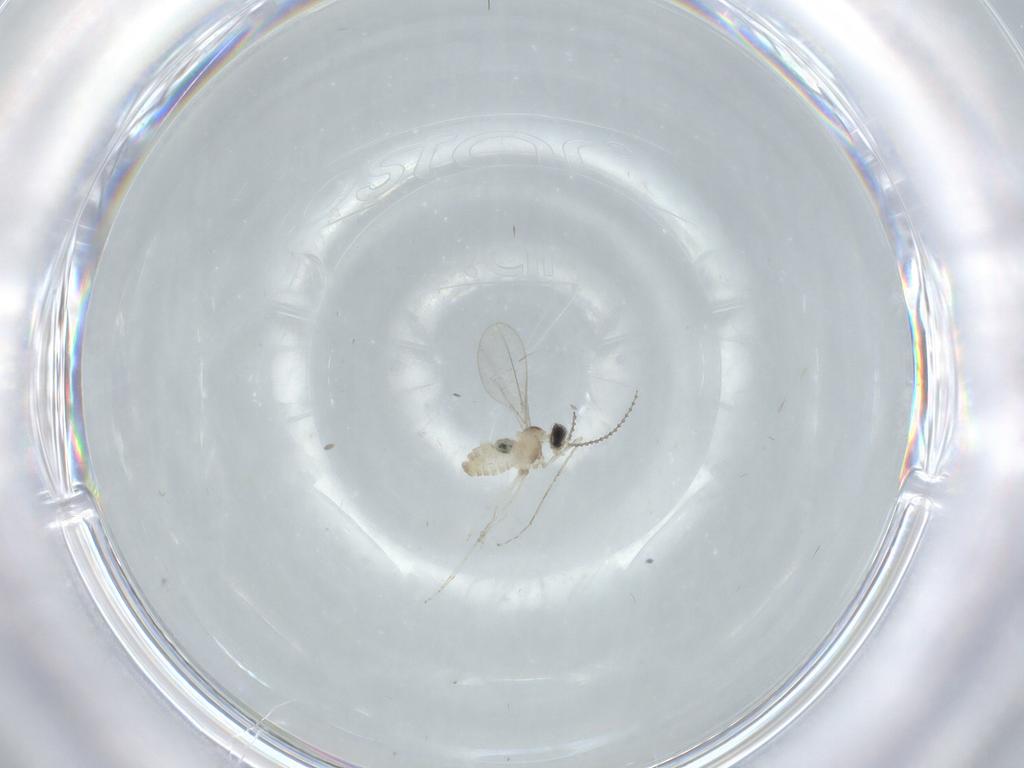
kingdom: Animalia
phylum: Arthropoda
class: Insecta
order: Diptera
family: Cecidomyiidae
